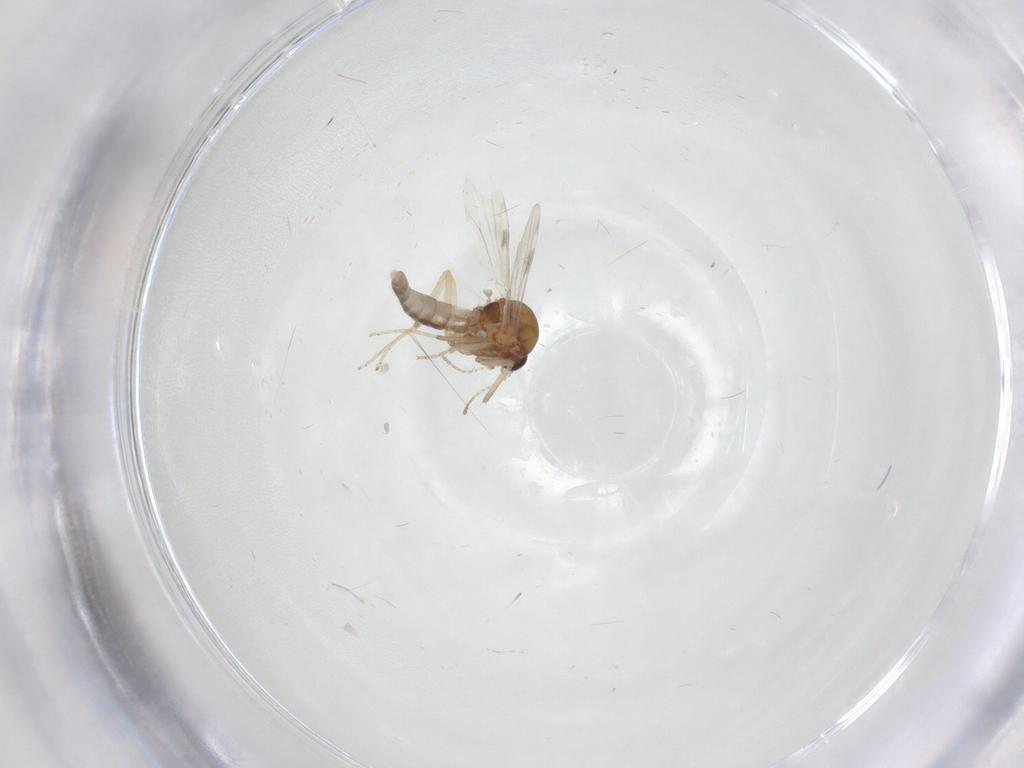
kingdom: Animalia
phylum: Arthropoda
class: Insecta
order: Diptera
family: Ceratopogonidae
